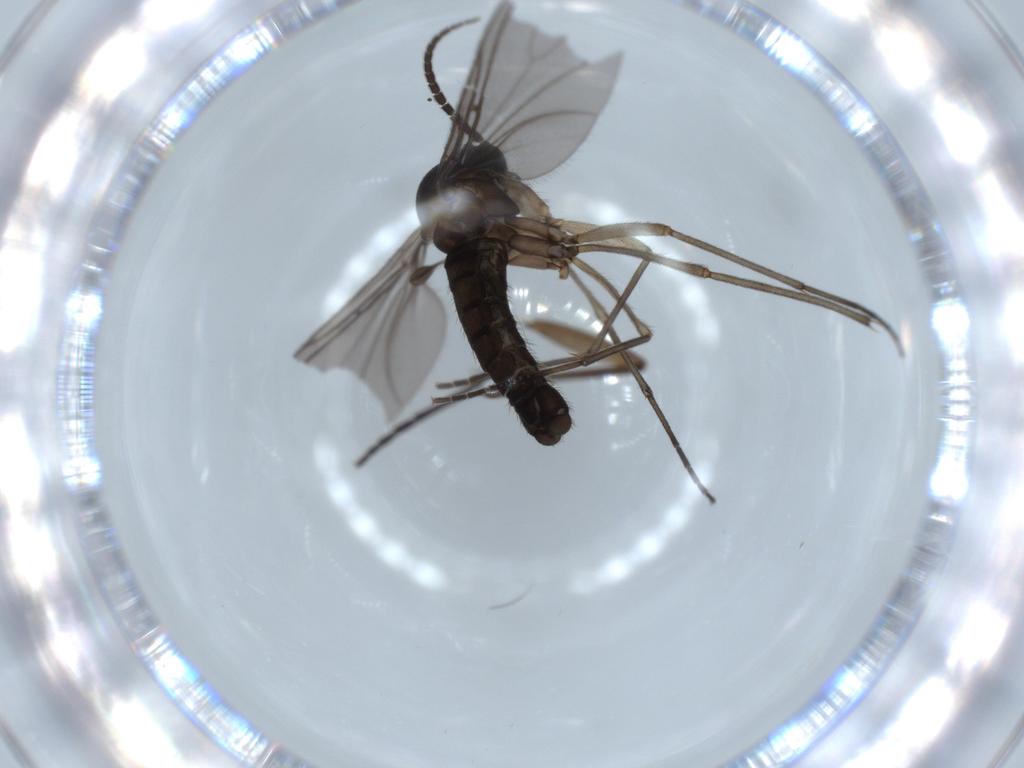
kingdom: Animalia
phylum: Arthropoda
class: Insecta
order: Diptera
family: Sciaridae
